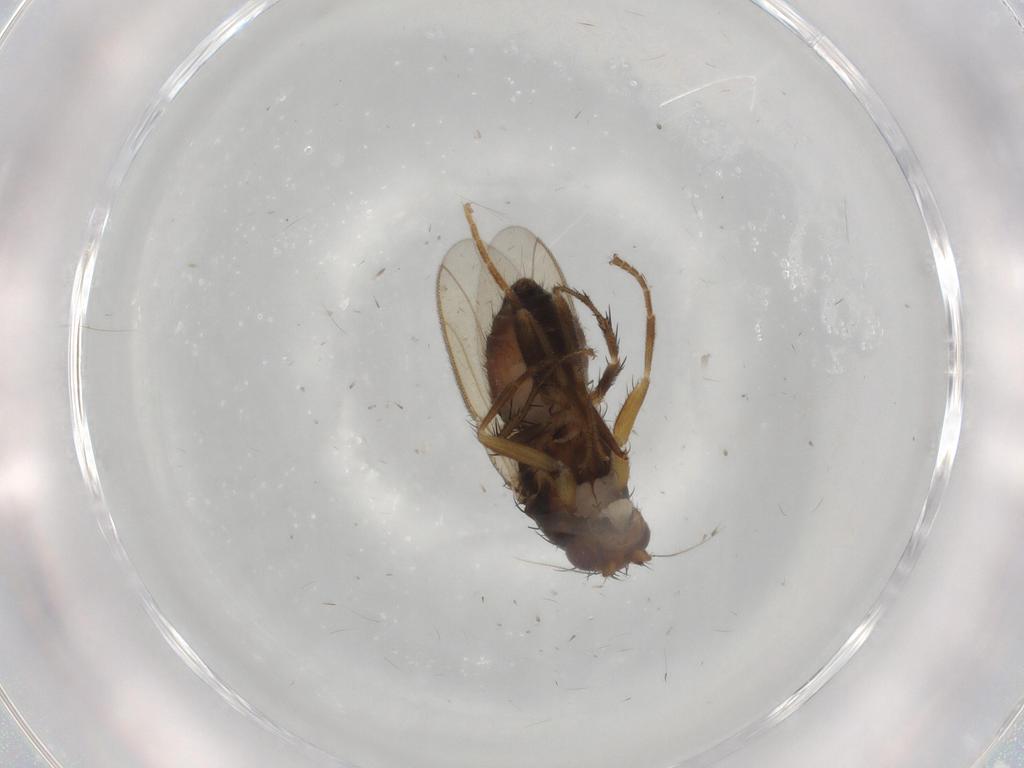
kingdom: Animalia
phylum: Arthropoda
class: Insecta
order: Diptera
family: Sphaeroceridae
